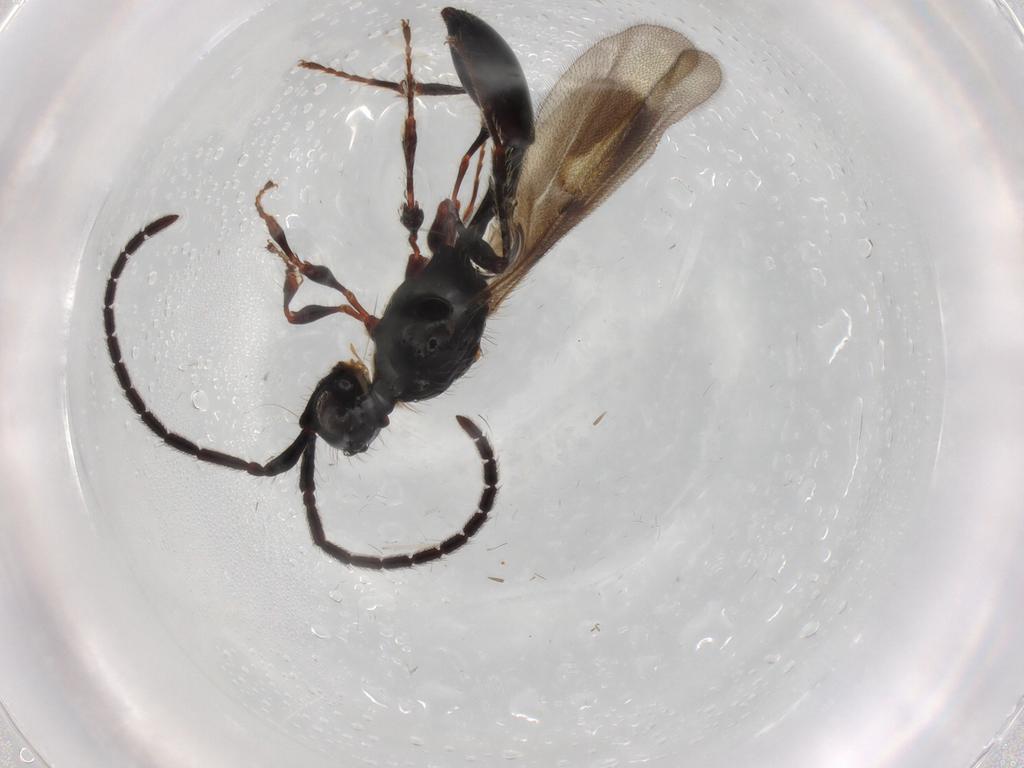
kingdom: Animalia
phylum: Arthropoda
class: Insecta
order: Hymenoptera
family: Diapriidae
